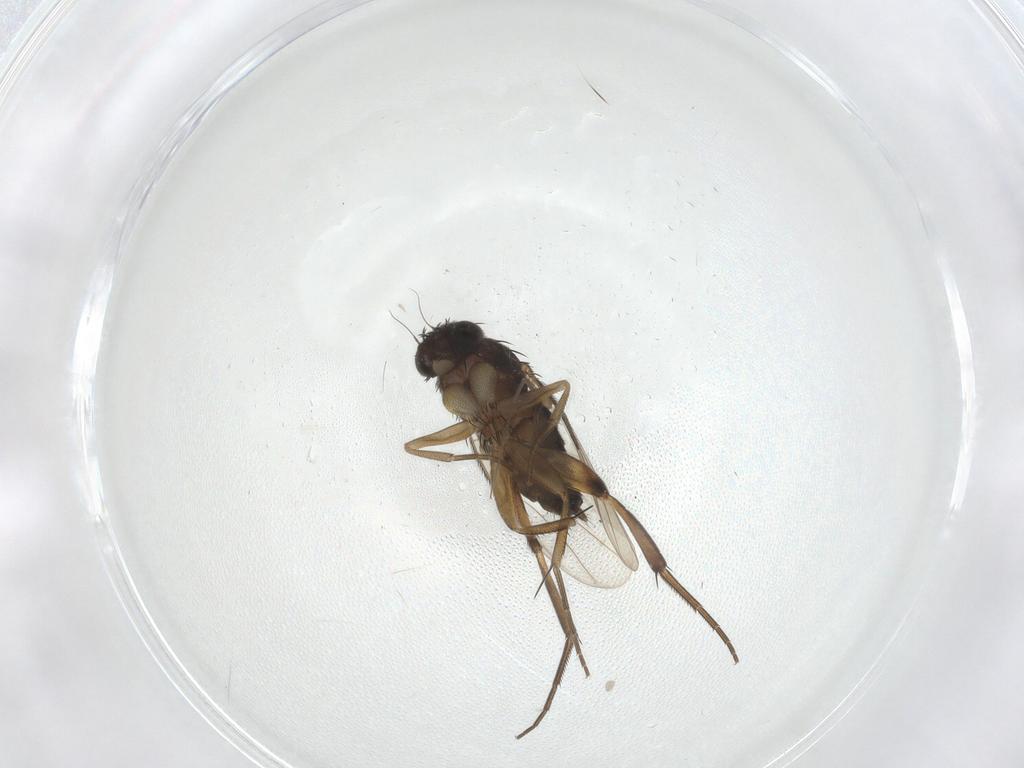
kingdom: Animalia
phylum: Arthropoda
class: Insecta
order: Diptera
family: Phoridae
